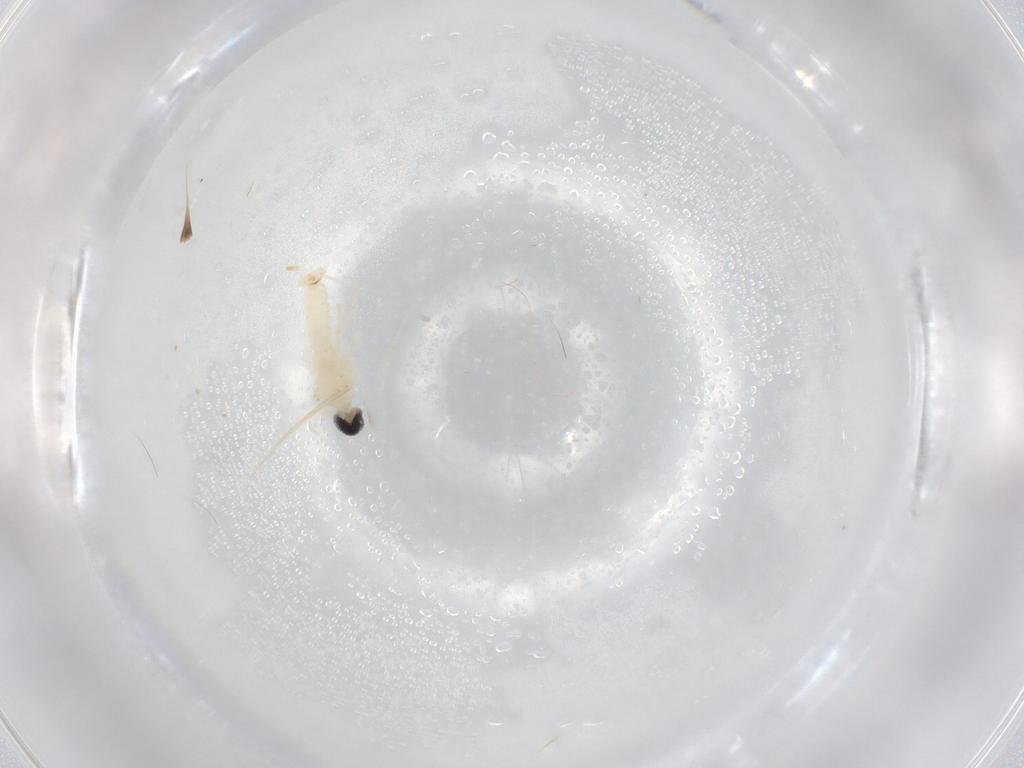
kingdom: Animalia
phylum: Arthropoda
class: Insecta
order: Diptera
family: Cecidomyiidae
